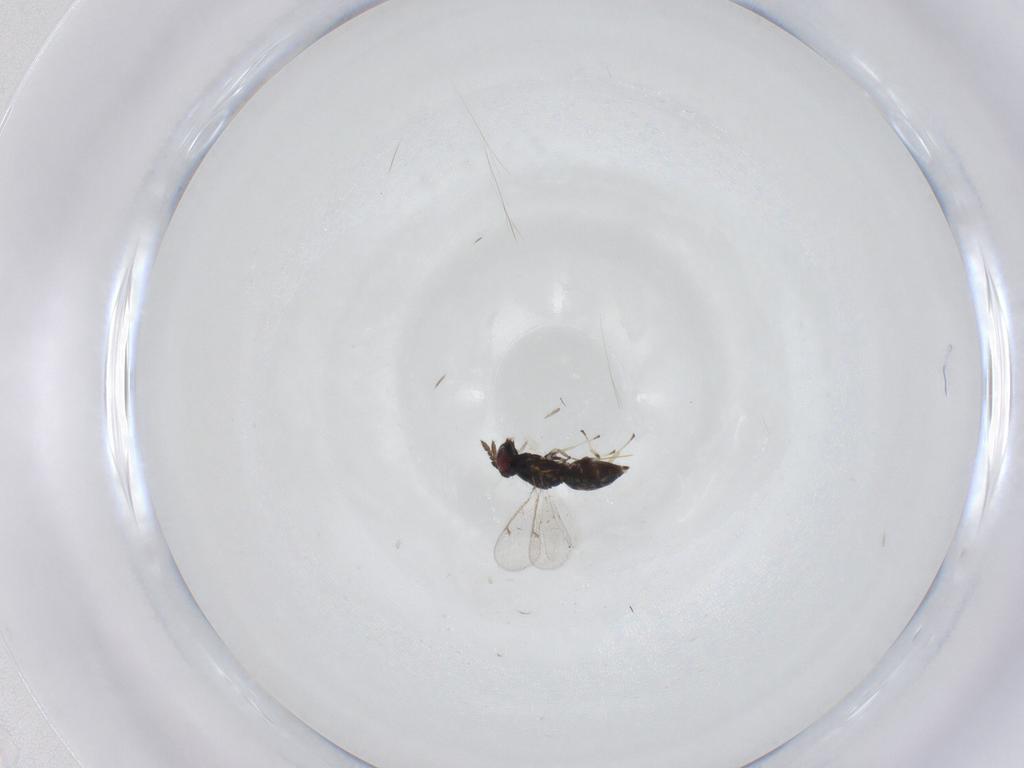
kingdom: Animalia
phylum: Arthropoda
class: Insecta
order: Hymenoptera
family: Eulophidae
